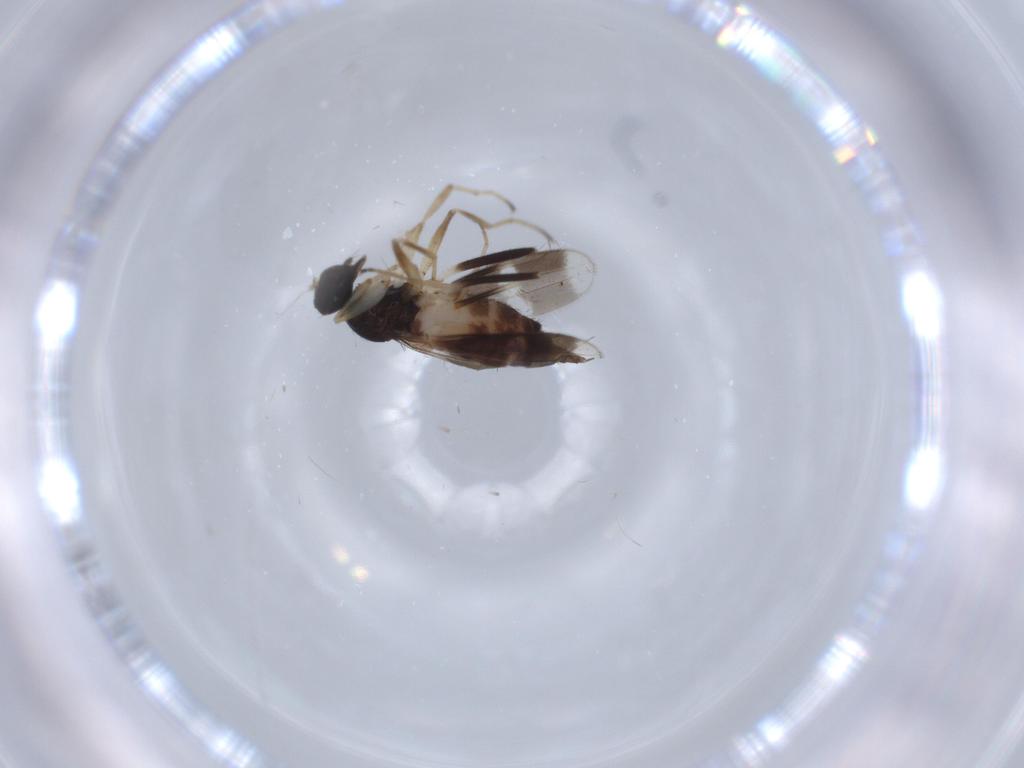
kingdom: Animalia
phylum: Arthropoda
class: Insecta
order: Diptera
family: Hybotidae
